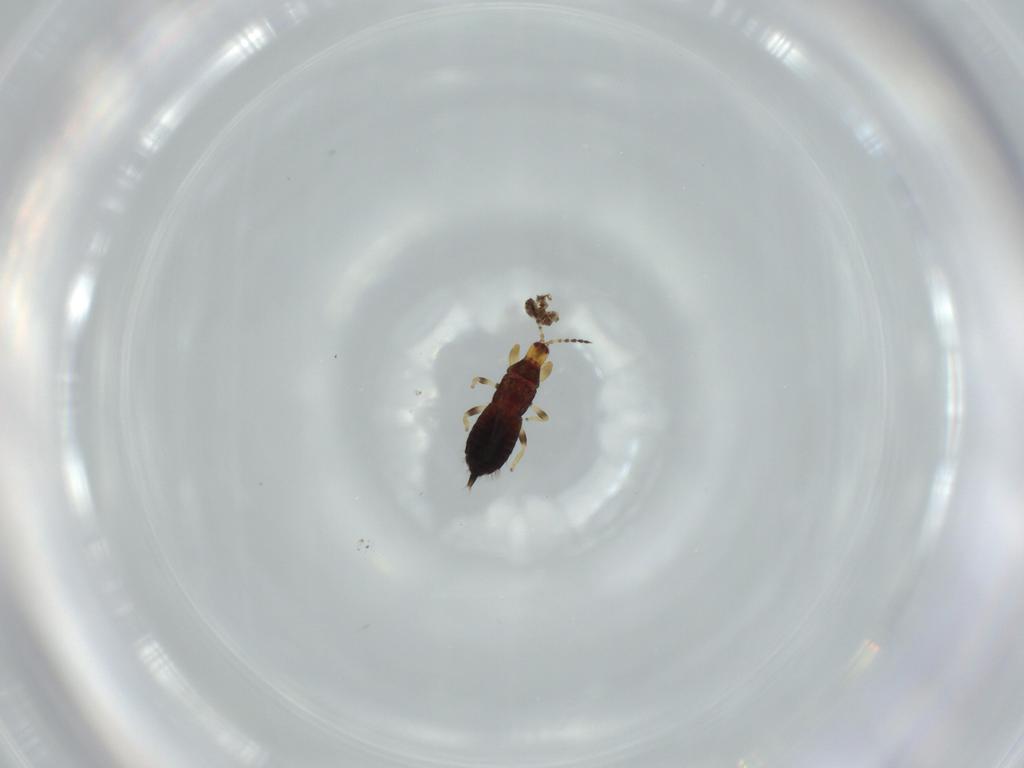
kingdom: Animalia
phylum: Arthropoda
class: Insecta
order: Thysanoptera
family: Phlaeothripidae
